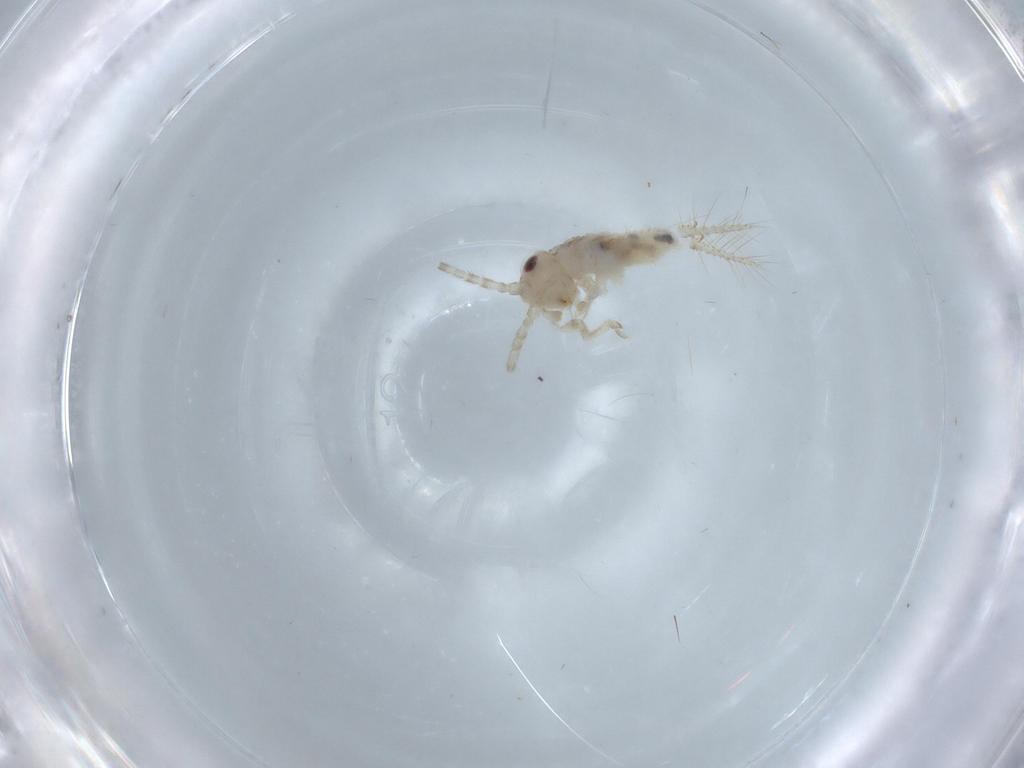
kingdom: Animalia
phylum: Arthropoda
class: Insecta
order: Orthoptera
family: Trigonidiidae
